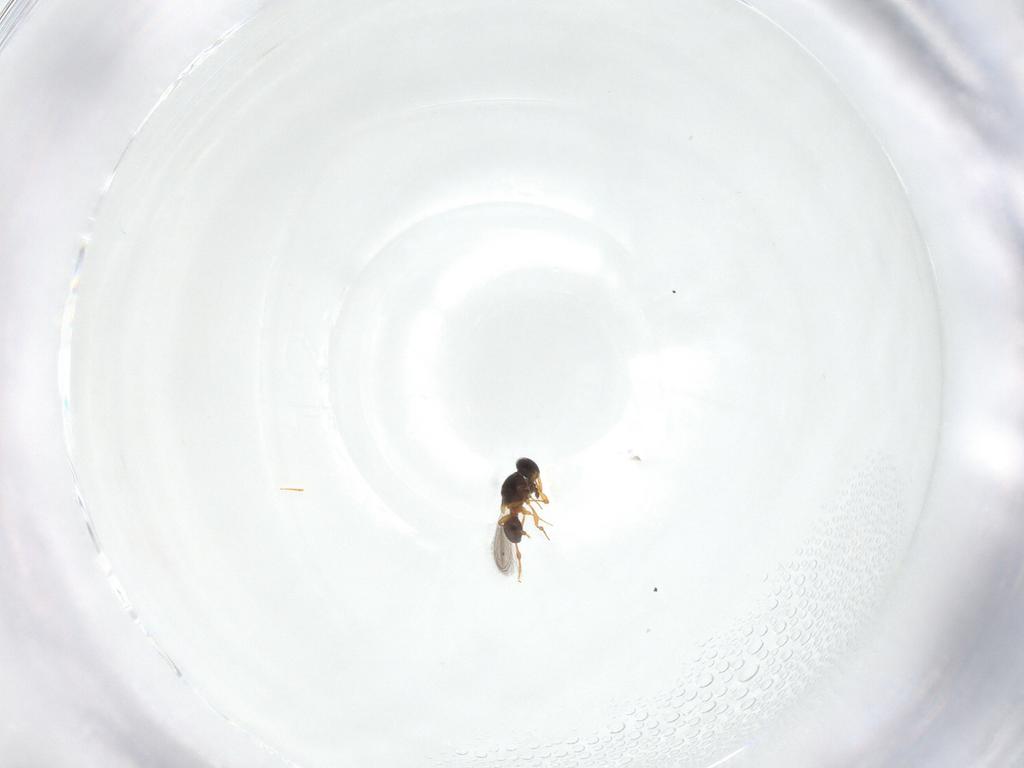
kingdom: Animalia
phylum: Arthropoda
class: Insecta
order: Hymenoptera
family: Platygastridae
